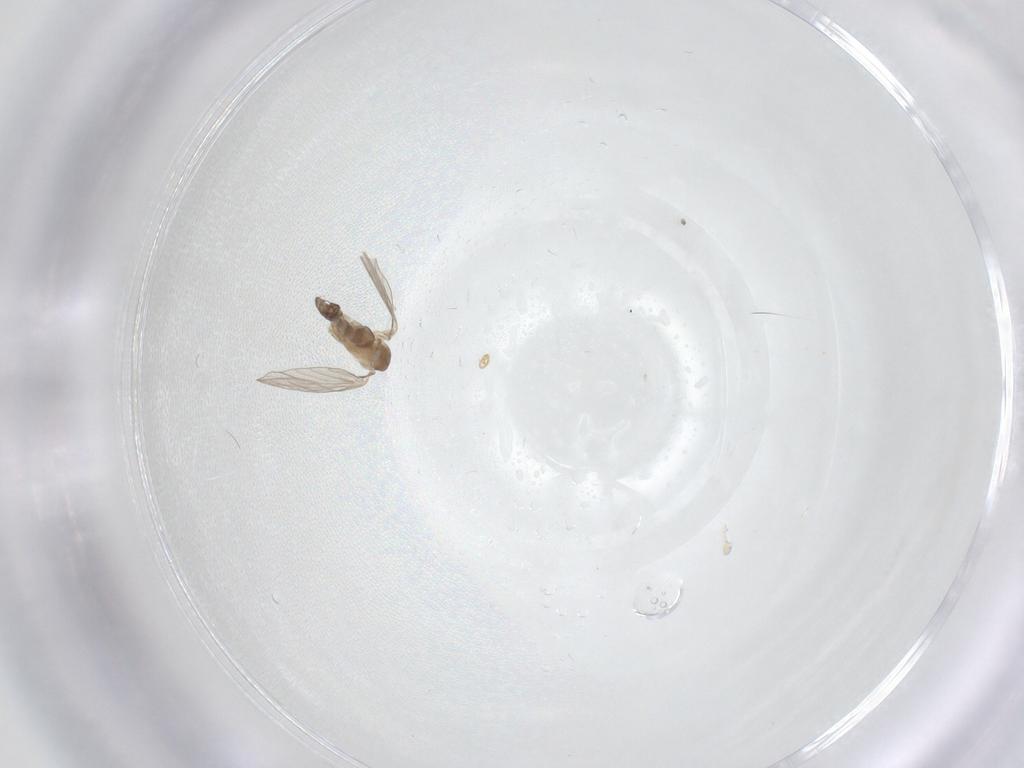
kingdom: Animalia
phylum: Arthropoda
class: Insecta
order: Diptera
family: Psychodidae
